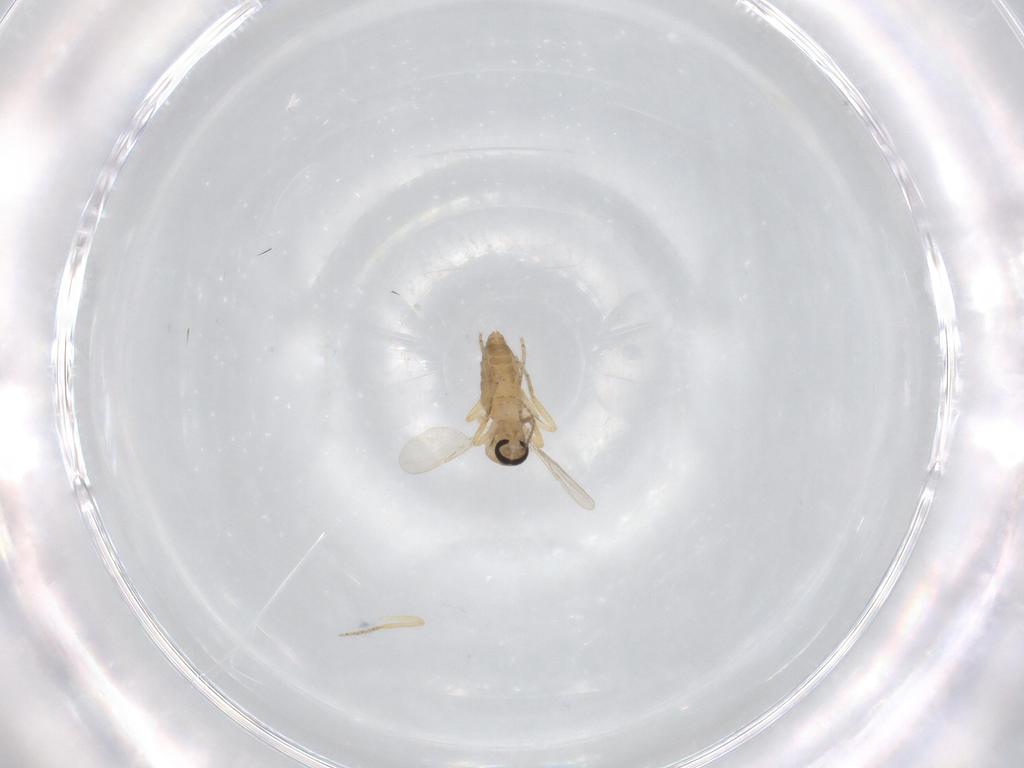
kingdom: Animalia
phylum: Arthropoda
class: Insecta
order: Diptera
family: Ceratopogonidae
